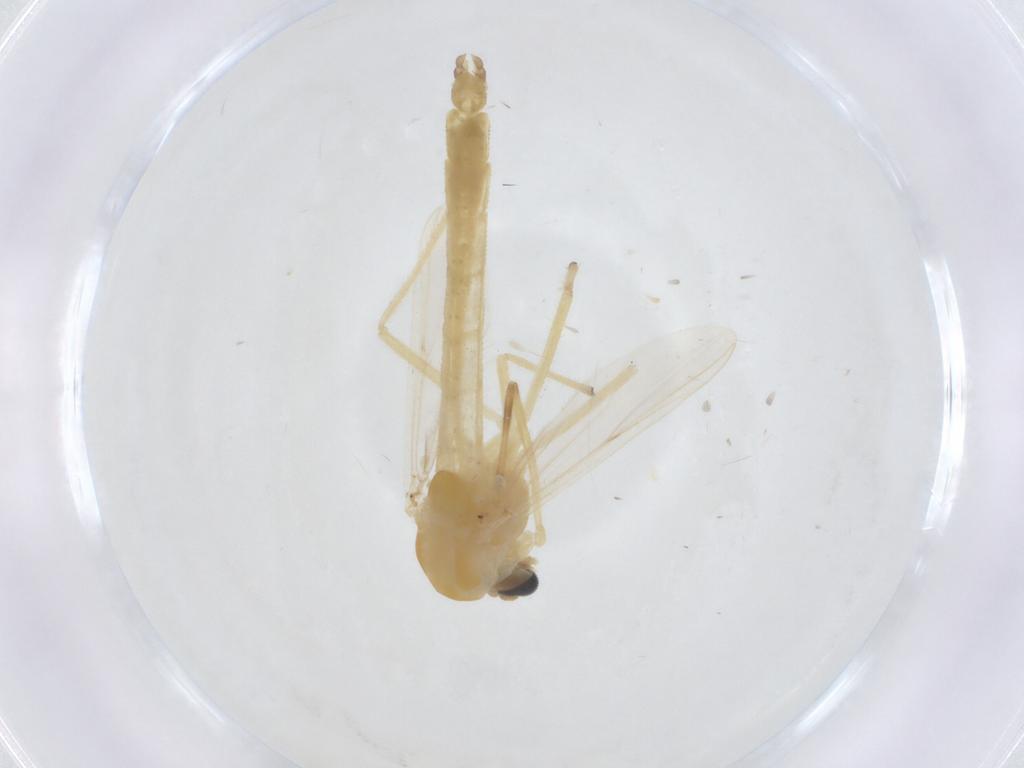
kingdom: Animalia
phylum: Arthropoda
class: Insecta
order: Diptera
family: Chironomidae
